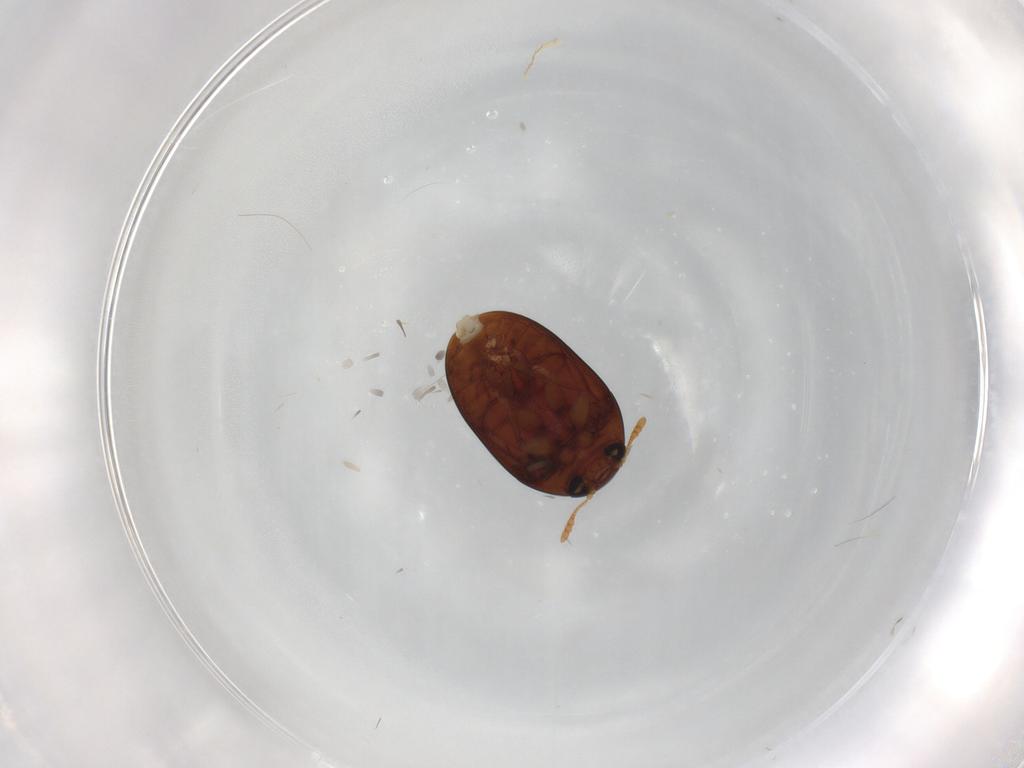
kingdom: Animalia
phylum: Arthropoda
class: Insecta
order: Coleoptera
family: Phalacridae
